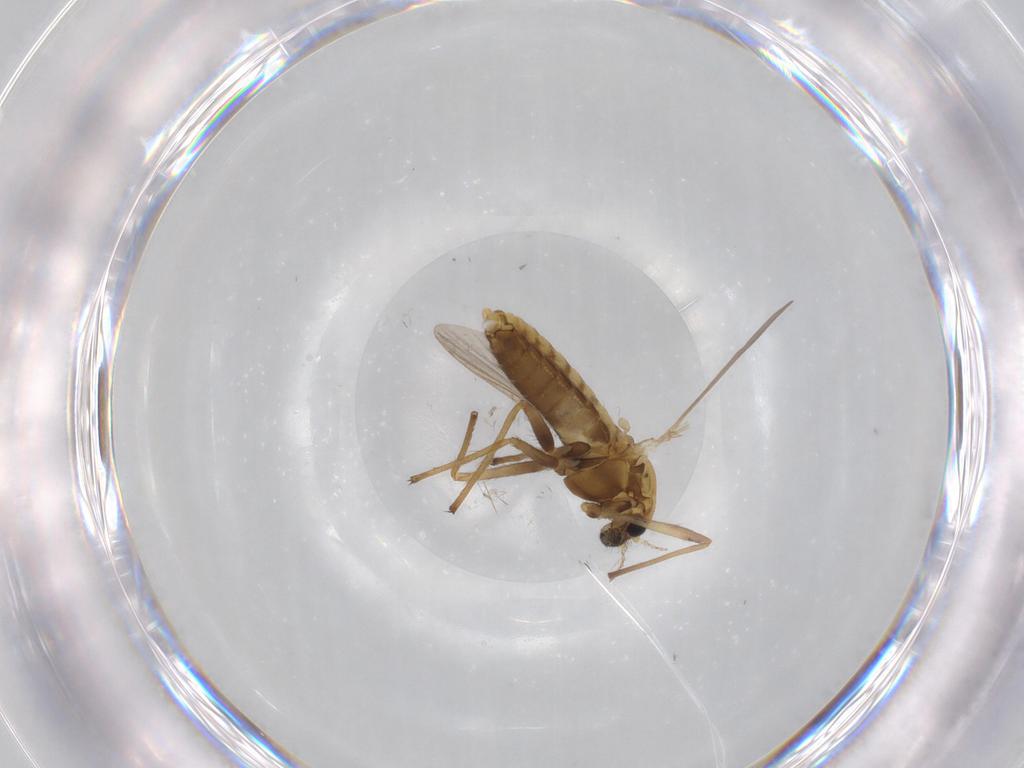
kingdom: Animalia
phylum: Arthropoda
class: Insecta
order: Diptera
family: Chironomidae
